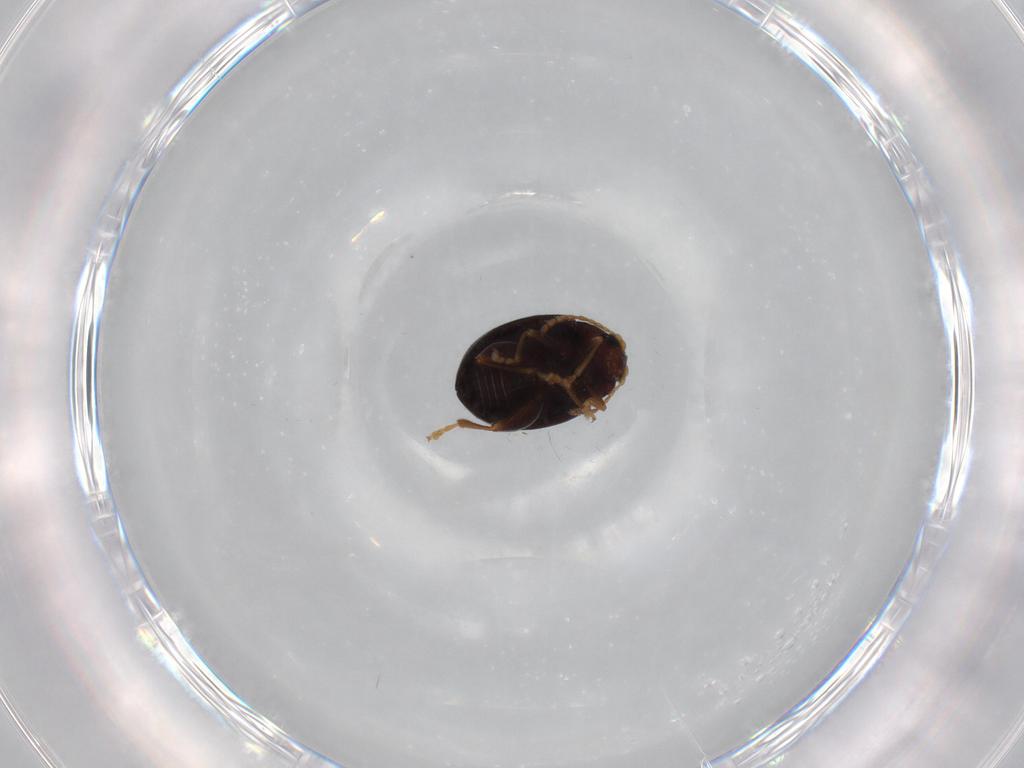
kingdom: Animalia
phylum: Arthropoda
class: Insecta
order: Coleoptera
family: Chrysomelidae
